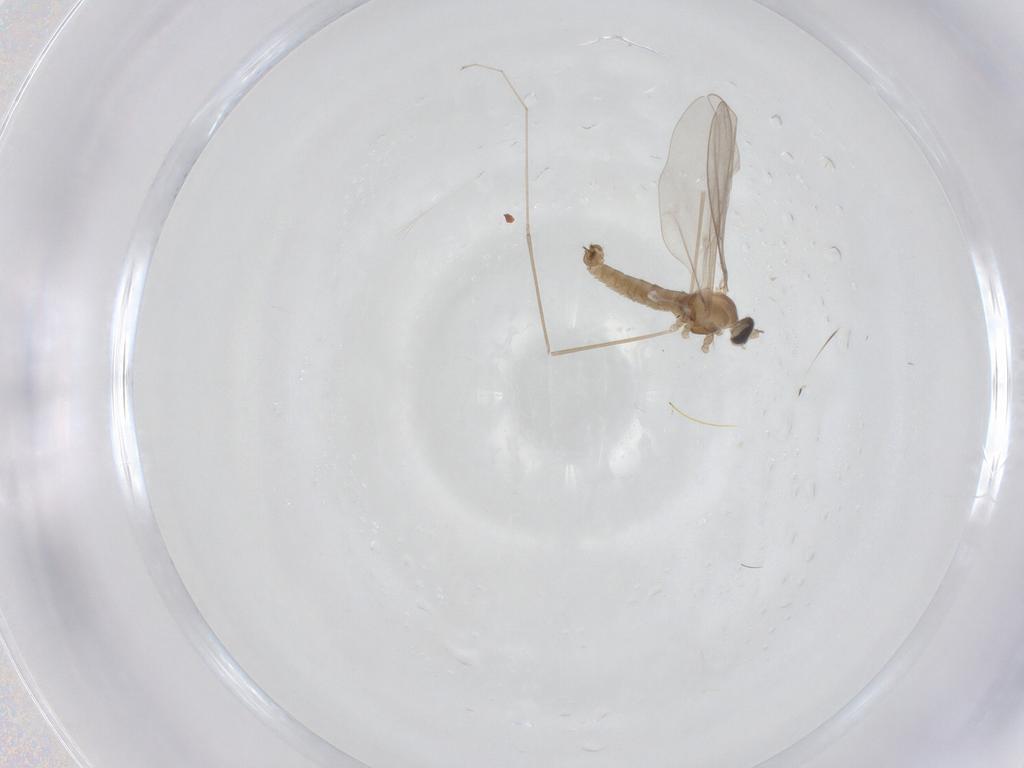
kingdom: Animalia
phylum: Arthropoda
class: Insecta
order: Diptera
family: Cecidomyiidae
